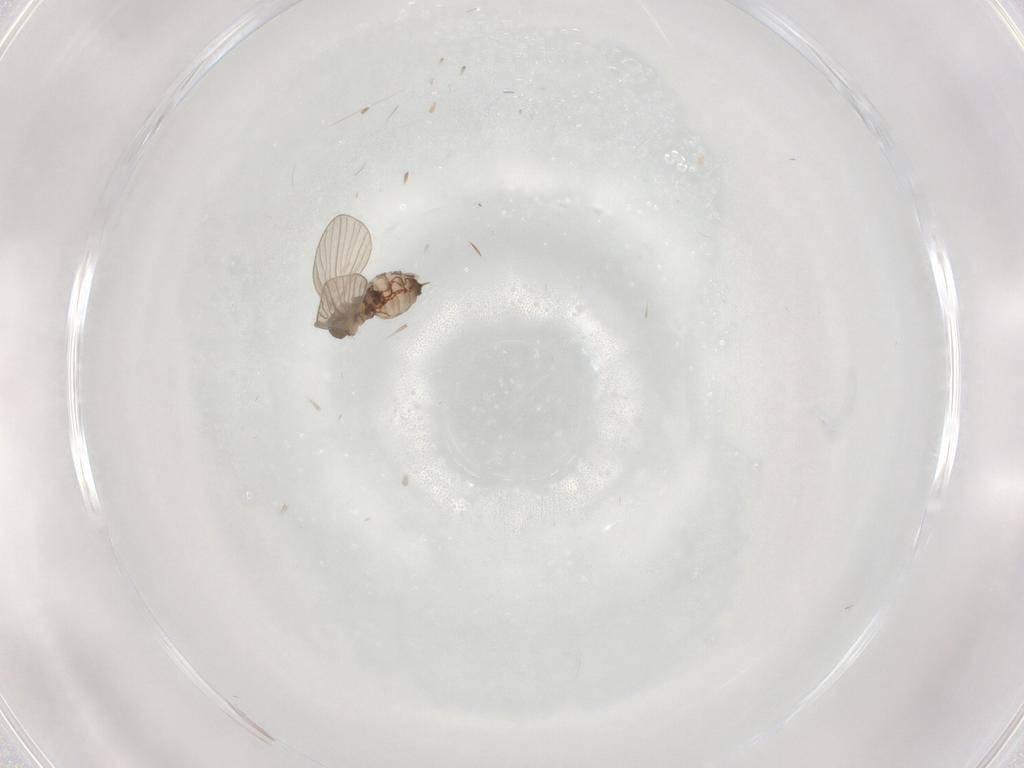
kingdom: Animalia
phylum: Arthropoda
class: Insecta
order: Diptera
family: Psychodidae
